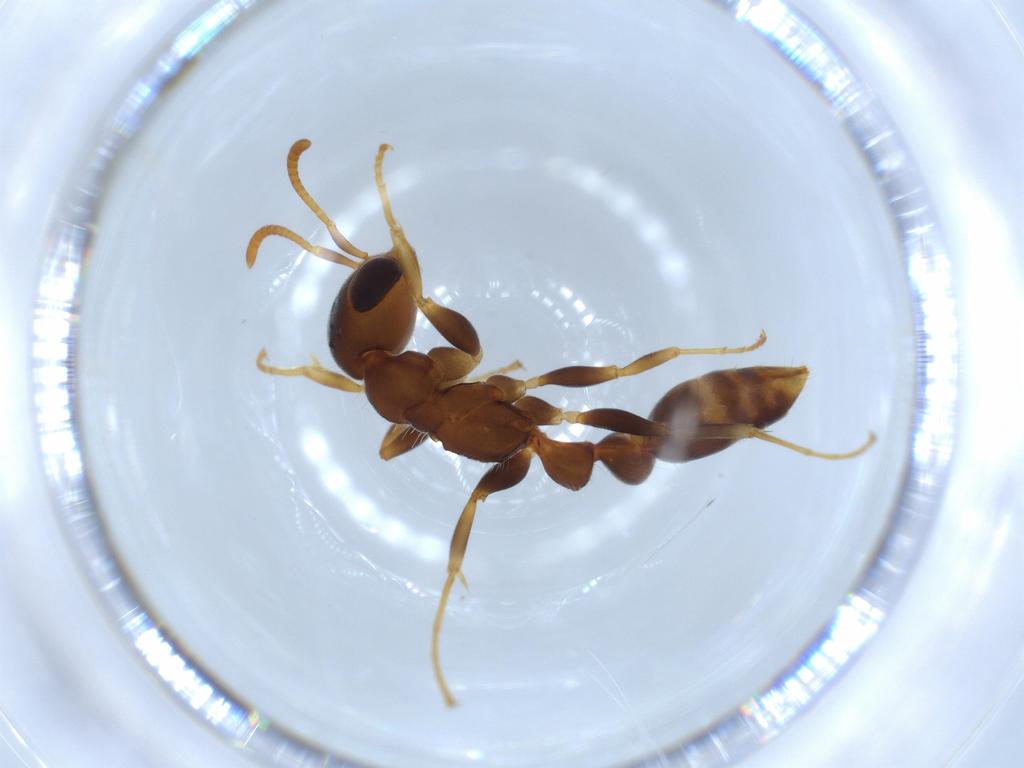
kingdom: Animalia
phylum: Arthropoda
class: Insecta
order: Hymenoptera
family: Formicidae
